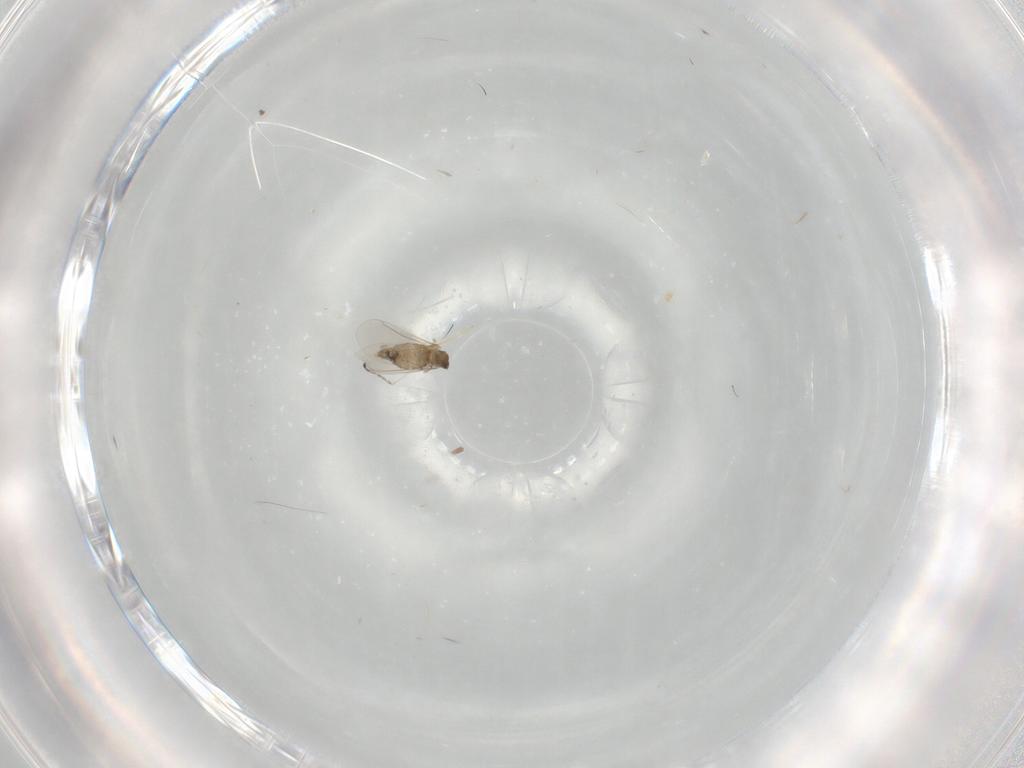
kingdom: Animalia
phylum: Arthropoda
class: Insecta
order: Diptera
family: Cecidomyiidae
